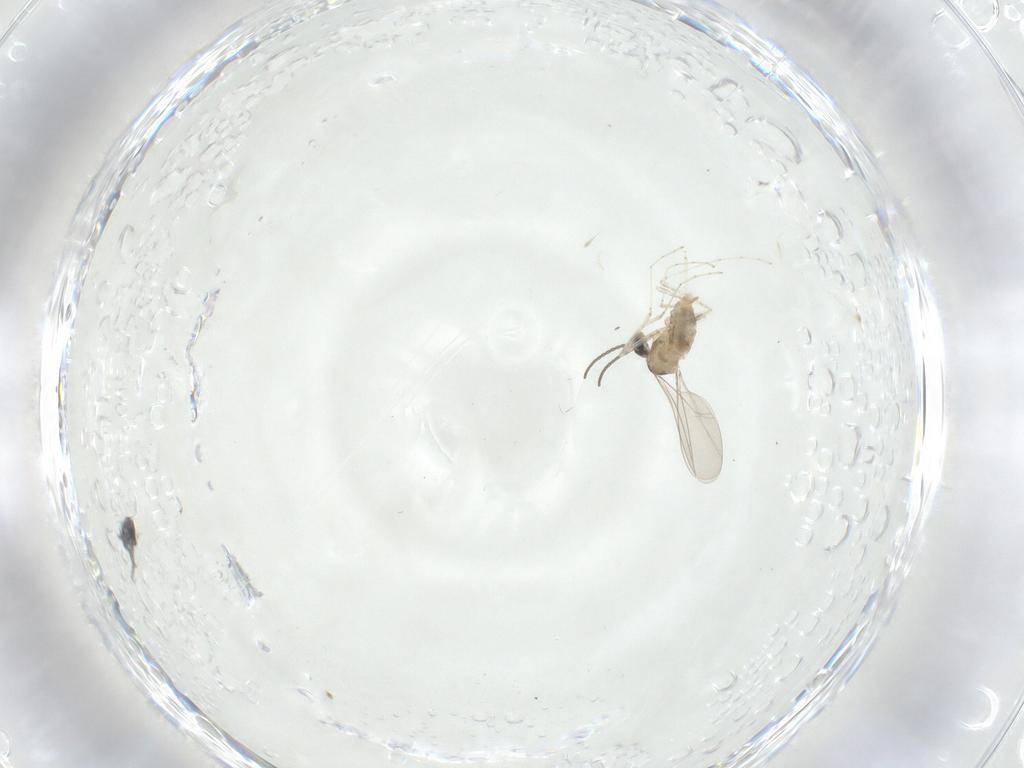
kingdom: Animalia
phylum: Arthropoda
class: Insecta
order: Diptera
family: Cecidomyiidae
